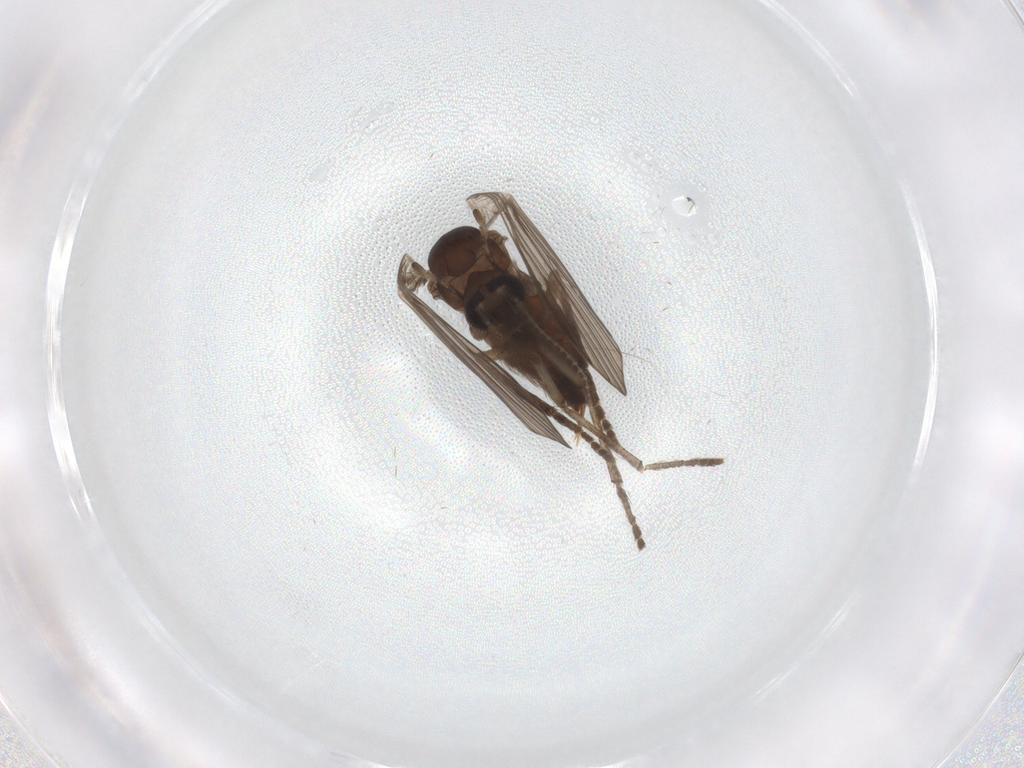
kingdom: Animalia
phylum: Arthropoda
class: Insecta
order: Diptera
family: Psychodidae
